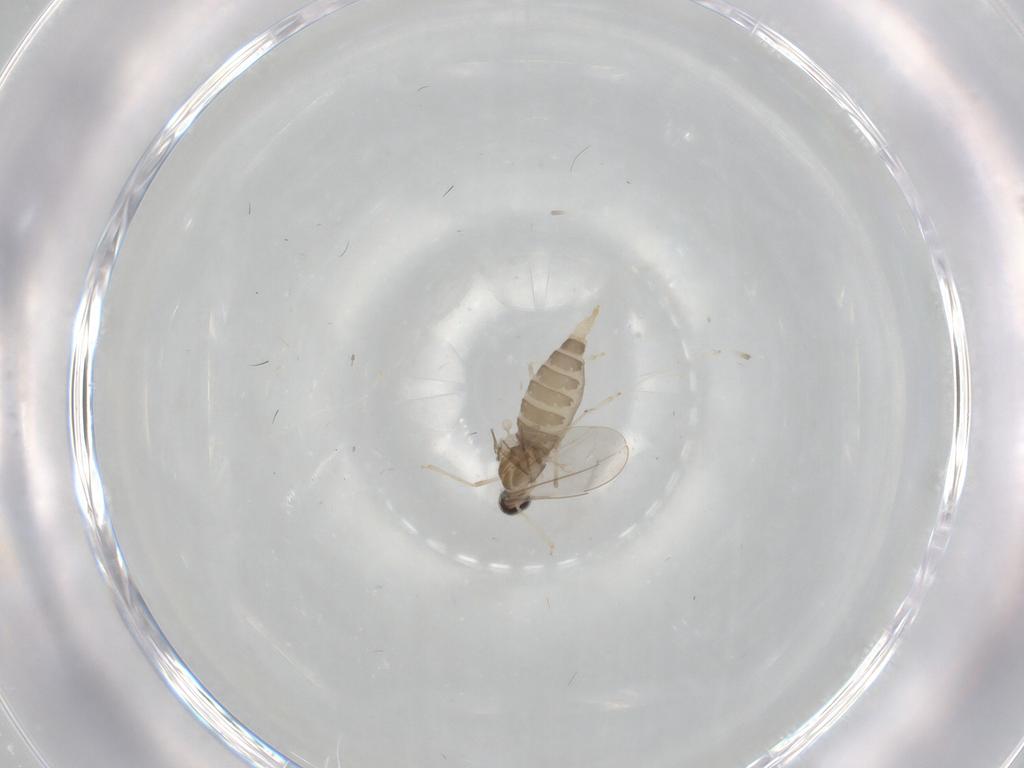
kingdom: Animalia
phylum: Arthropoda
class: Insecta
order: Diptera
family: Cecidomyiidae
